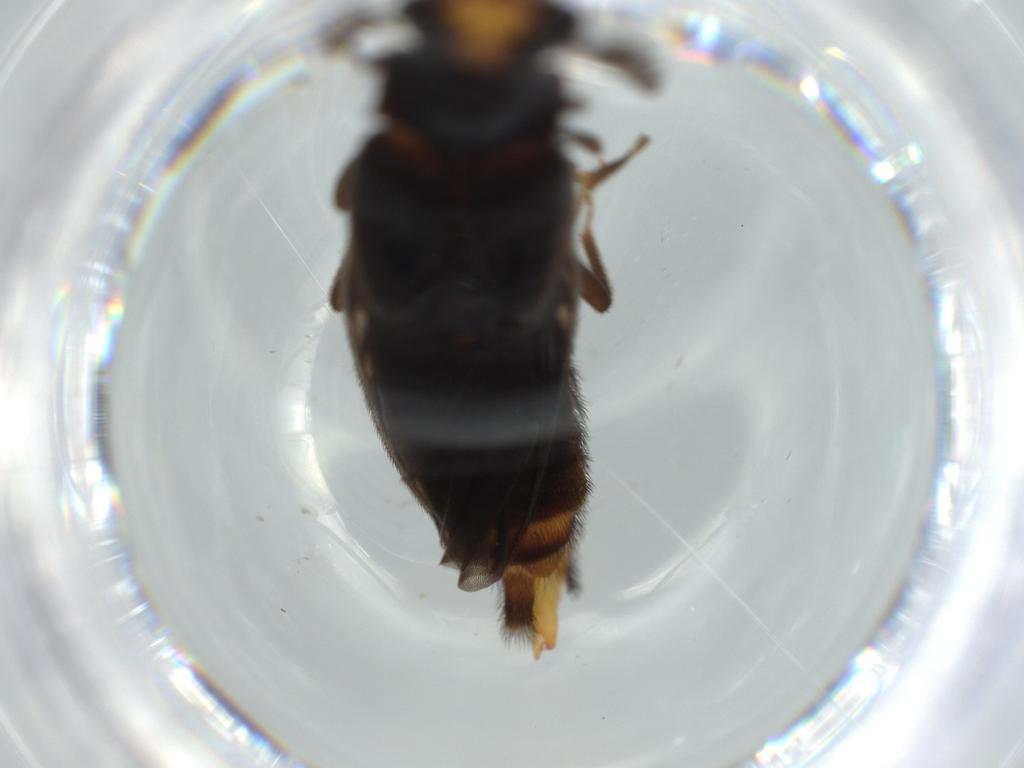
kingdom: Animalia
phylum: Arthropoda
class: Insecta
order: Coleoptera
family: Phengodidae
